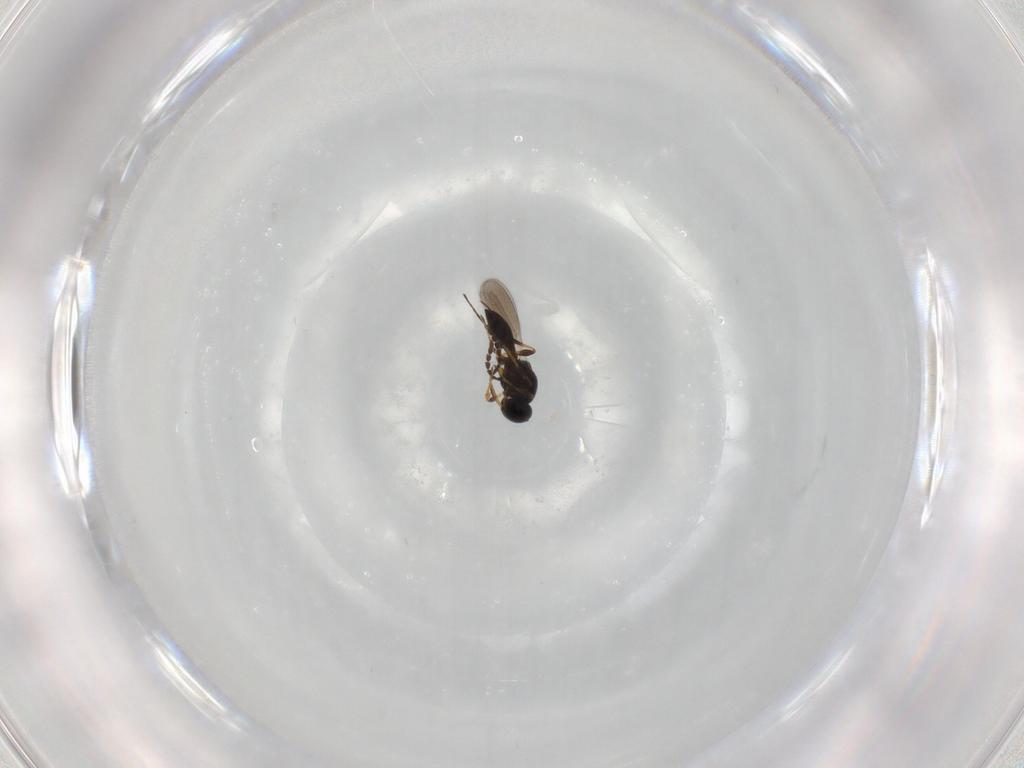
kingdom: Animalia
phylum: Arthropoda
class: Insecta
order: Hymenoptera
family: Platygastridae
